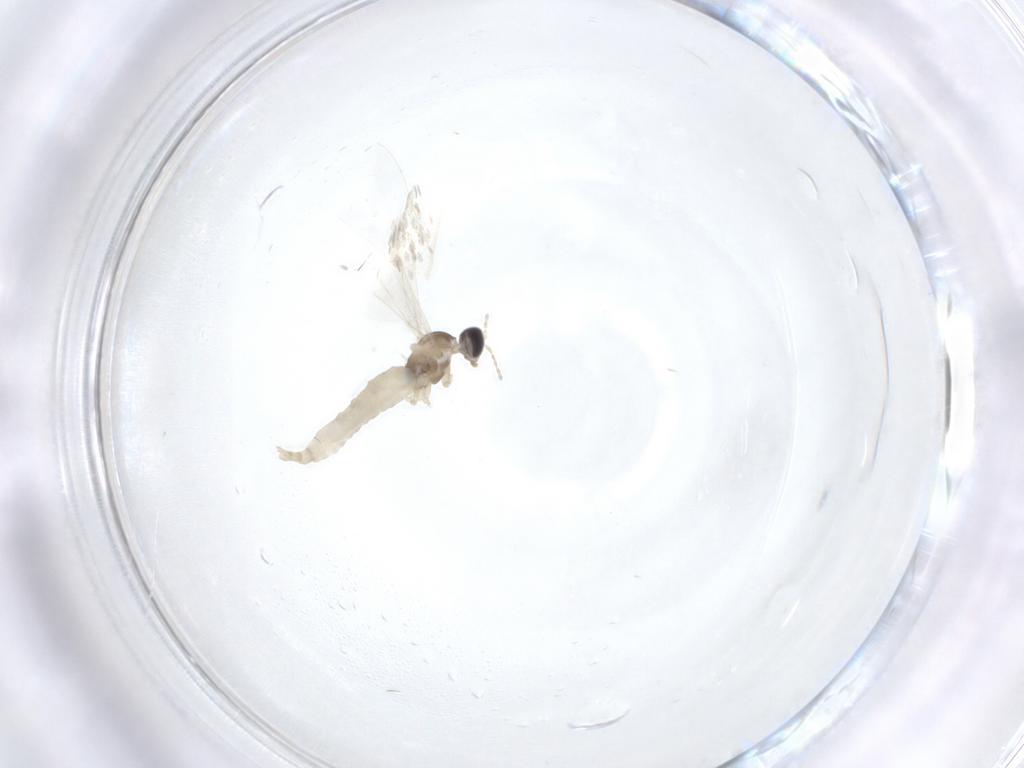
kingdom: Animalia
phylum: Arthropoda
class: Insecta
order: Diptera
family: Cecidomyiidae
